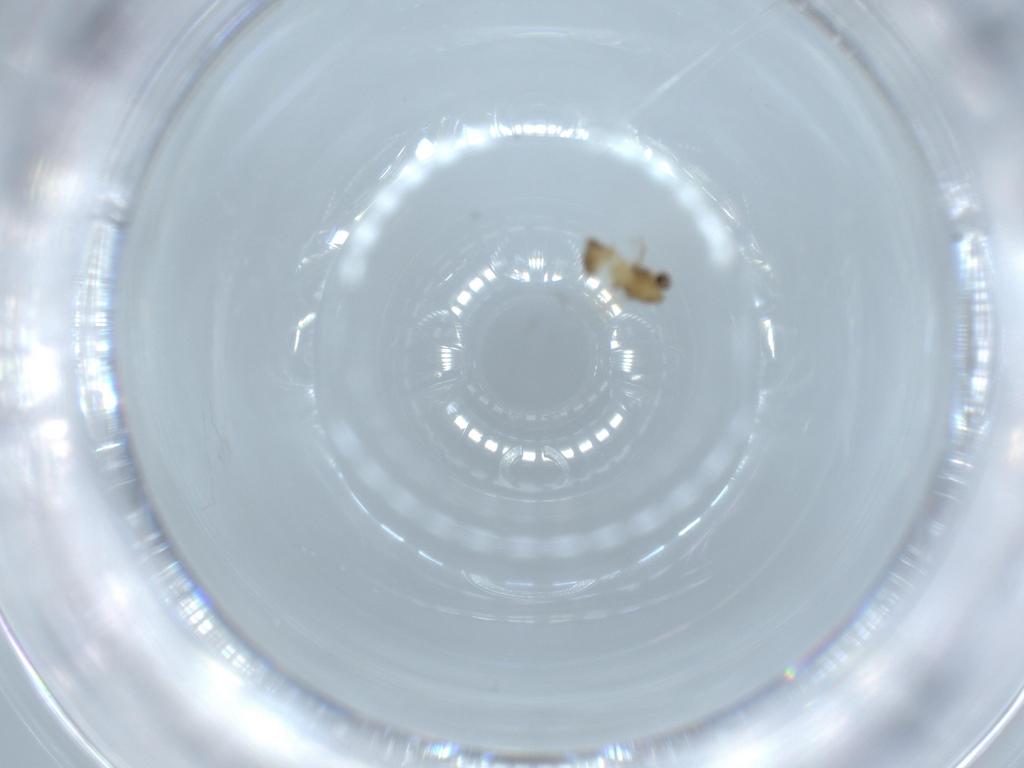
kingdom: Animalia
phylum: Arthropoda
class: Insecta
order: Diptera
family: Chironomidae
